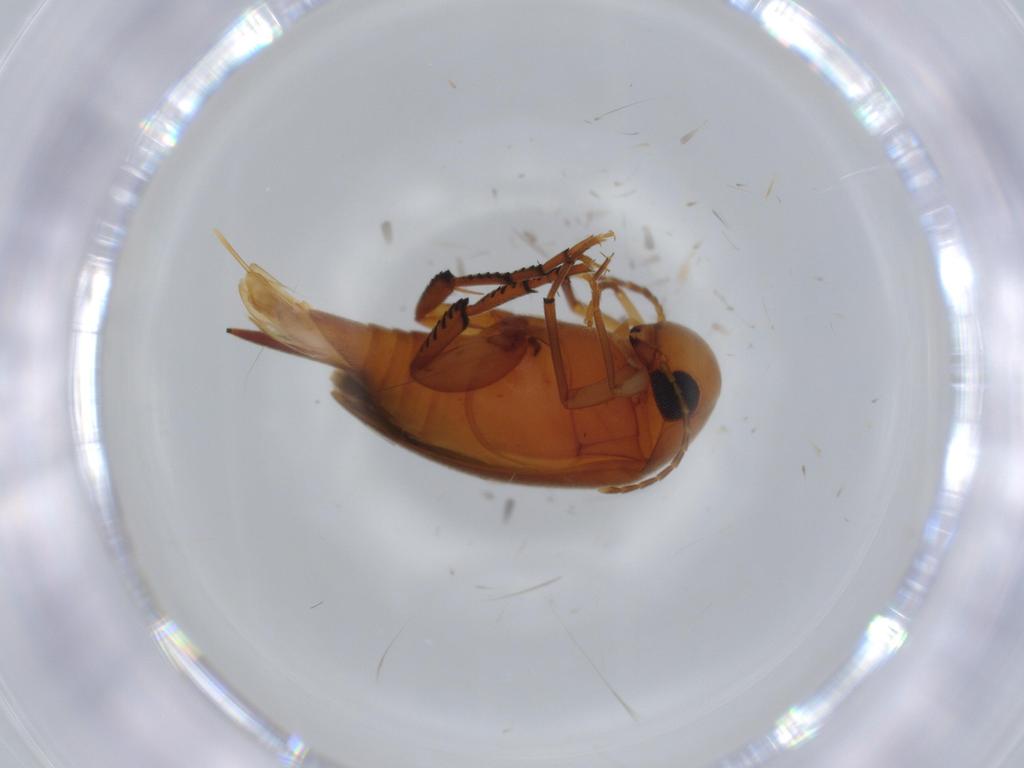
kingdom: Animalia
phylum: Arthropoda
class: Insecta
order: Coleoptera
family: Mordellidae
